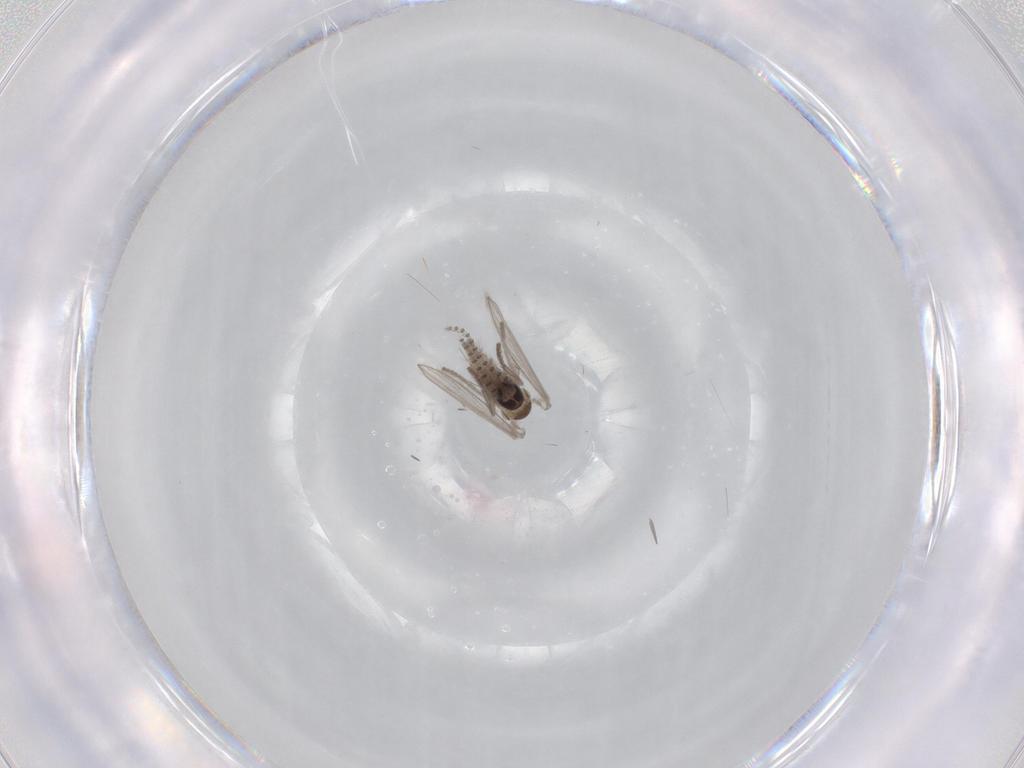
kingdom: Animalia
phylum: Arthropoda
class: Insecta
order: Diptera
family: Psychodidae
